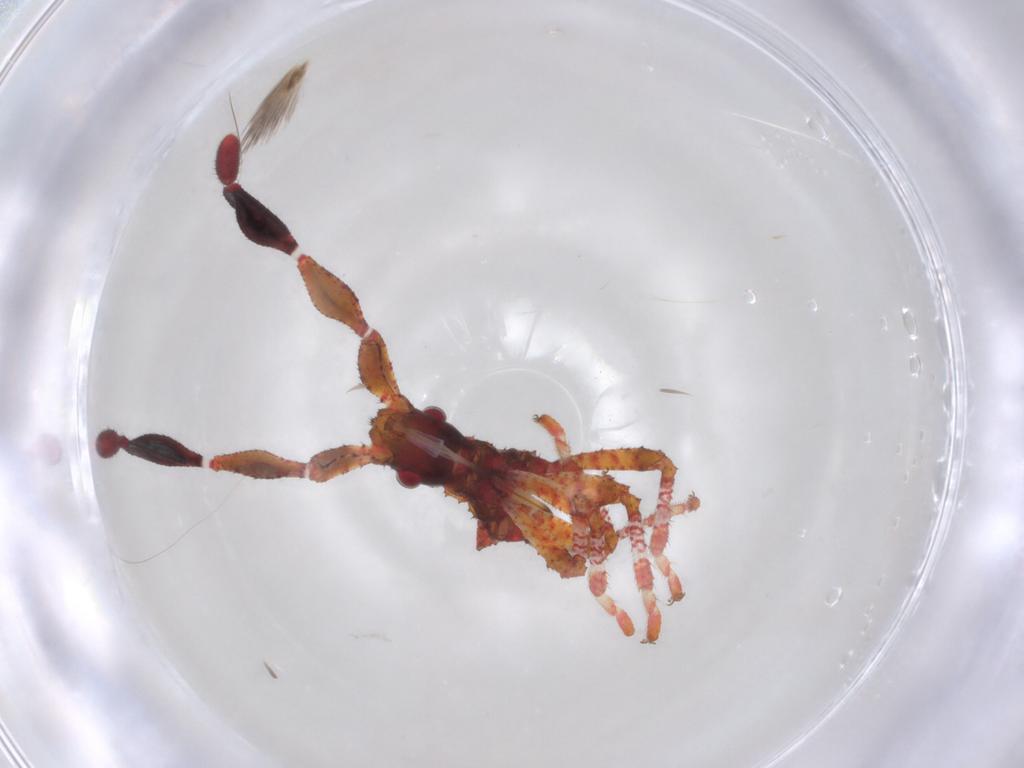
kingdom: Animalia
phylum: Arthropoda
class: Insecta
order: Hemiptera
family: Coreidae
